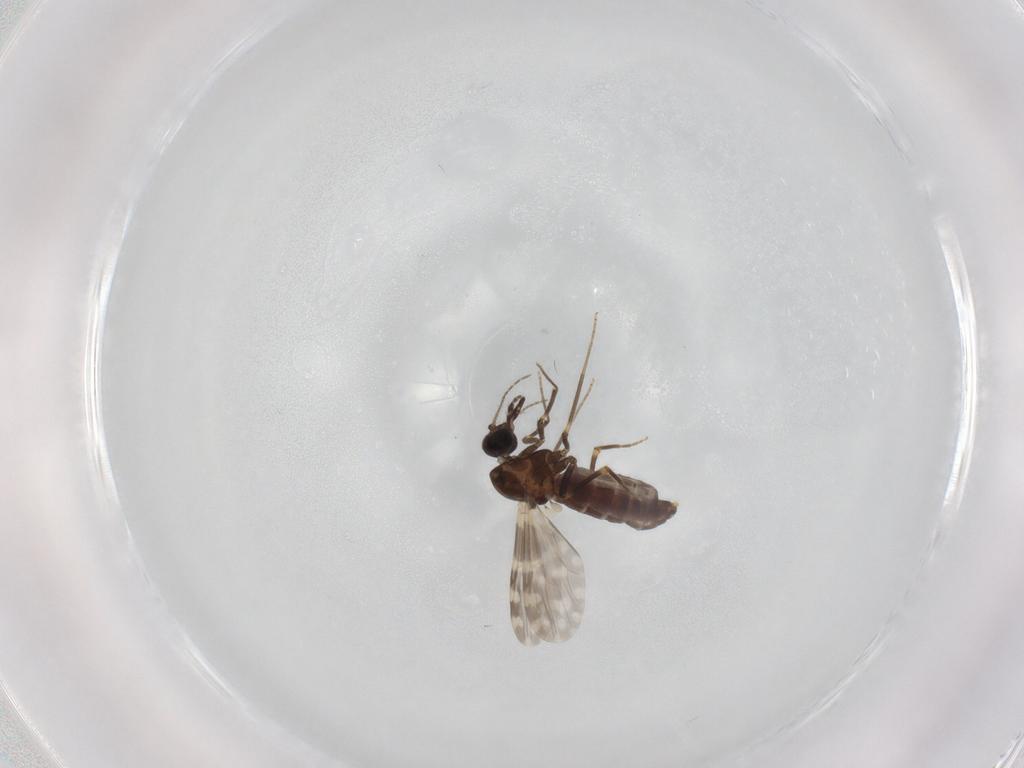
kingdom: Animalia
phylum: Arthropoda
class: Insecta
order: Diptera
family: Ceratopogonidae
